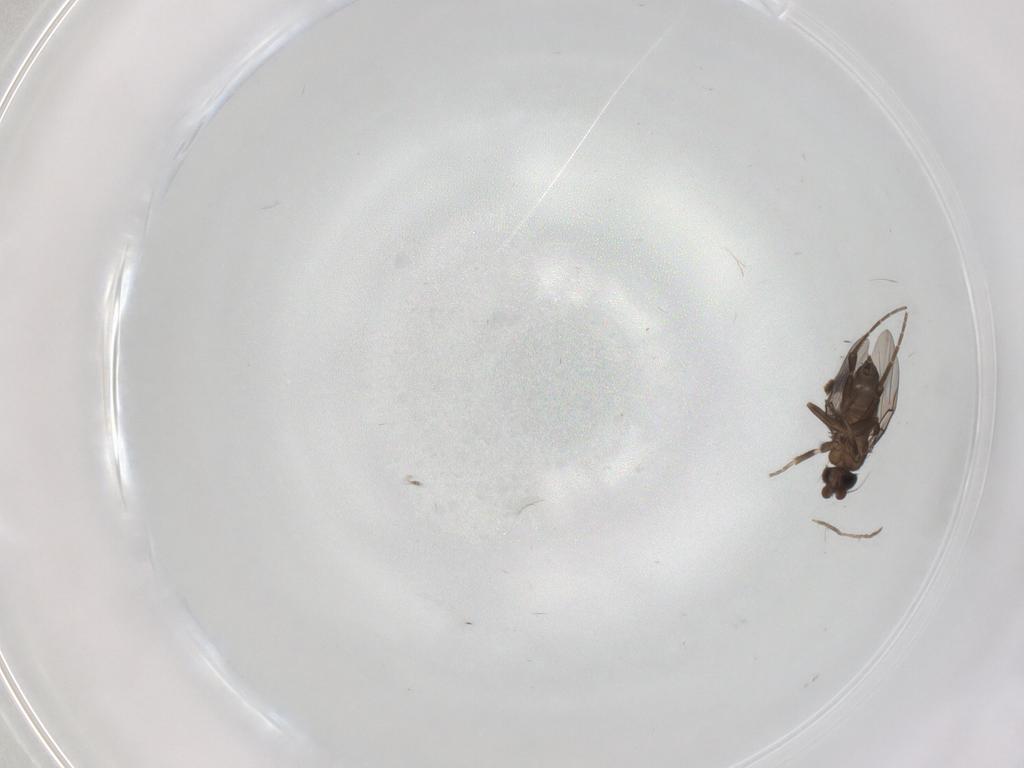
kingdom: Animalia
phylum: Arthropoda
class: Insecta
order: Diptera
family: Chironomidae
